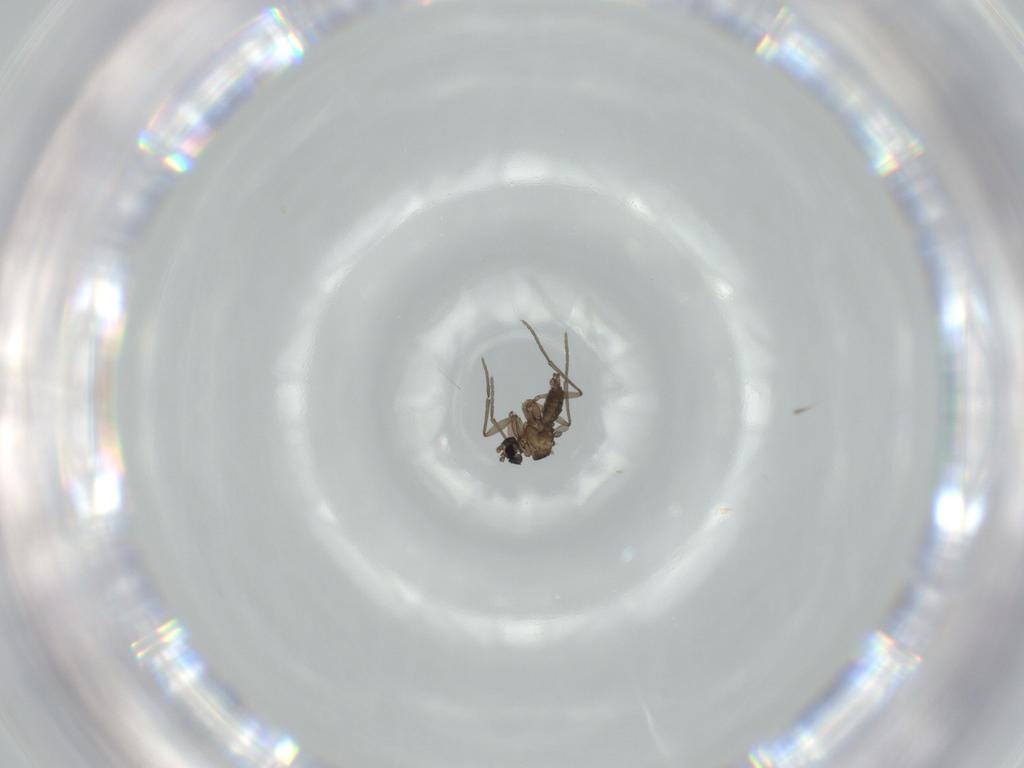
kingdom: Animalia
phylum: Arthropoda
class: Insecta
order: Diptera
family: Sciaridae
